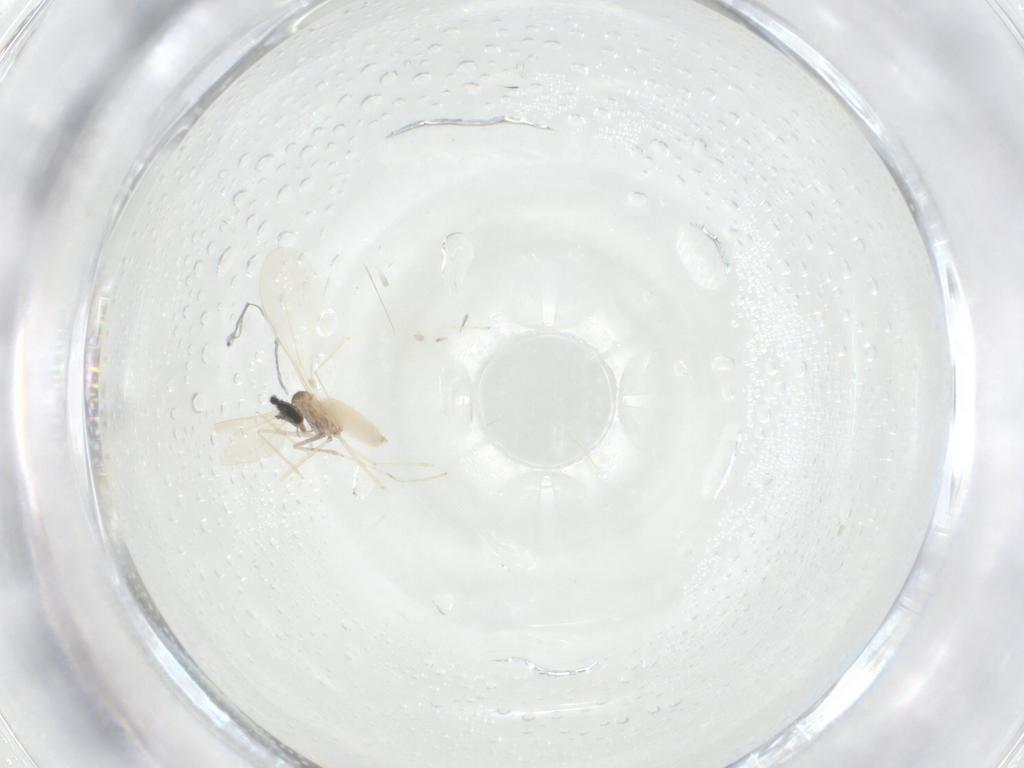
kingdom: Animalia
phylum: Arthropoda
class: Insecta
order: Diptera
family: Cecidomyiidae
